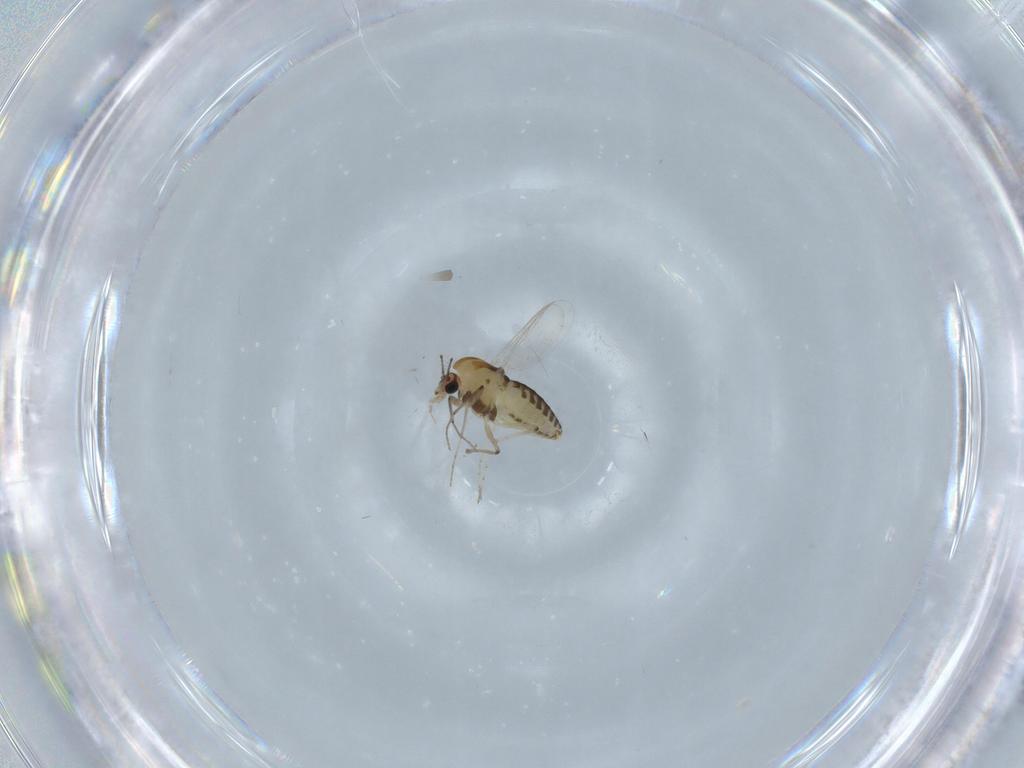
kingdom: Animalia
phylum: Arthropoda
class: Insecta
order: Diptera
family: Chironomidae
